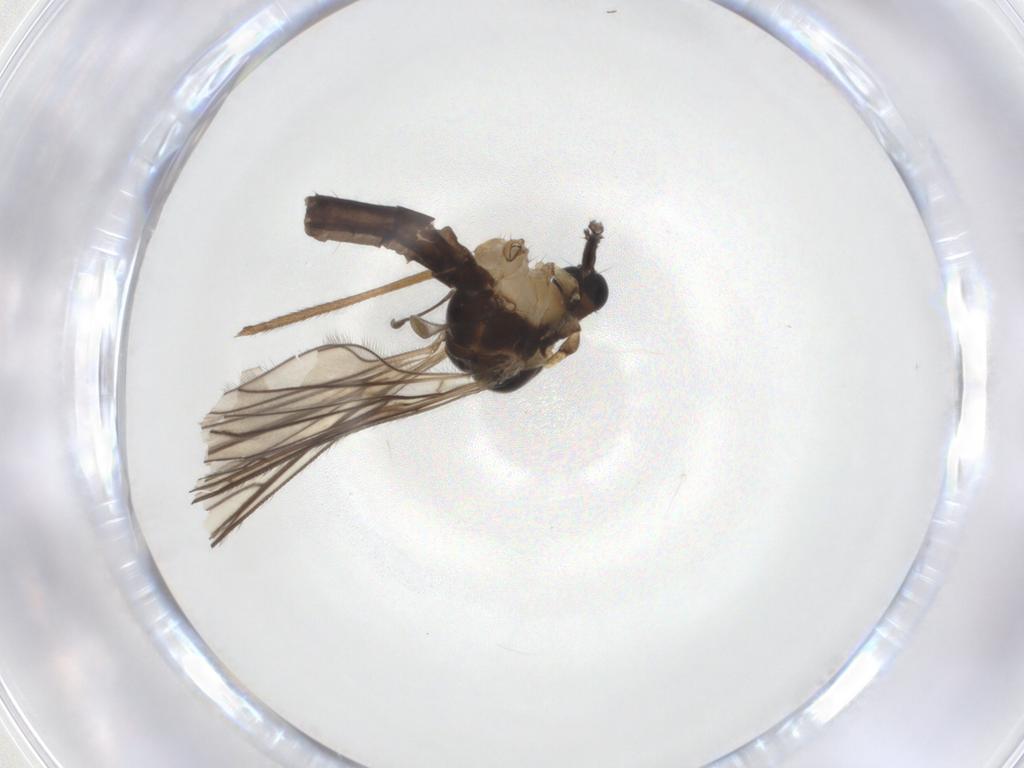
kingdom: Animalia
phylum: Arthropoda
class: Insecta
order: Diptera
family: Limoniidae
